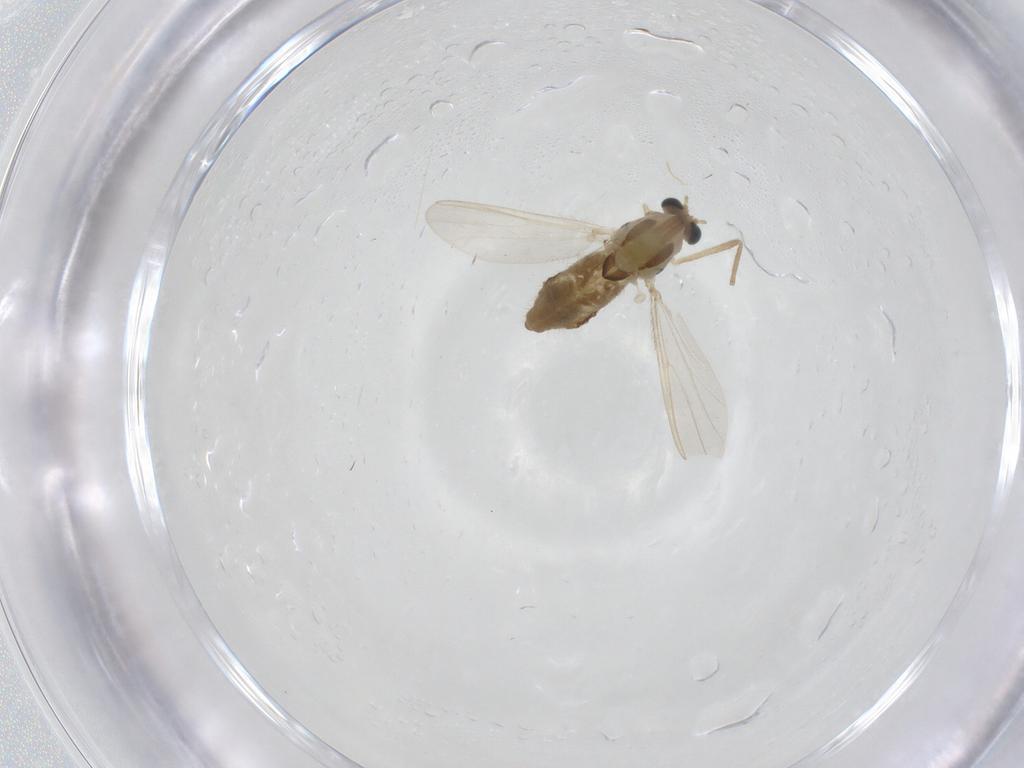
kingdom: Animalia
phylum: Arthropoda
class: Insecta
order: Diptera
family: Chironomidae
